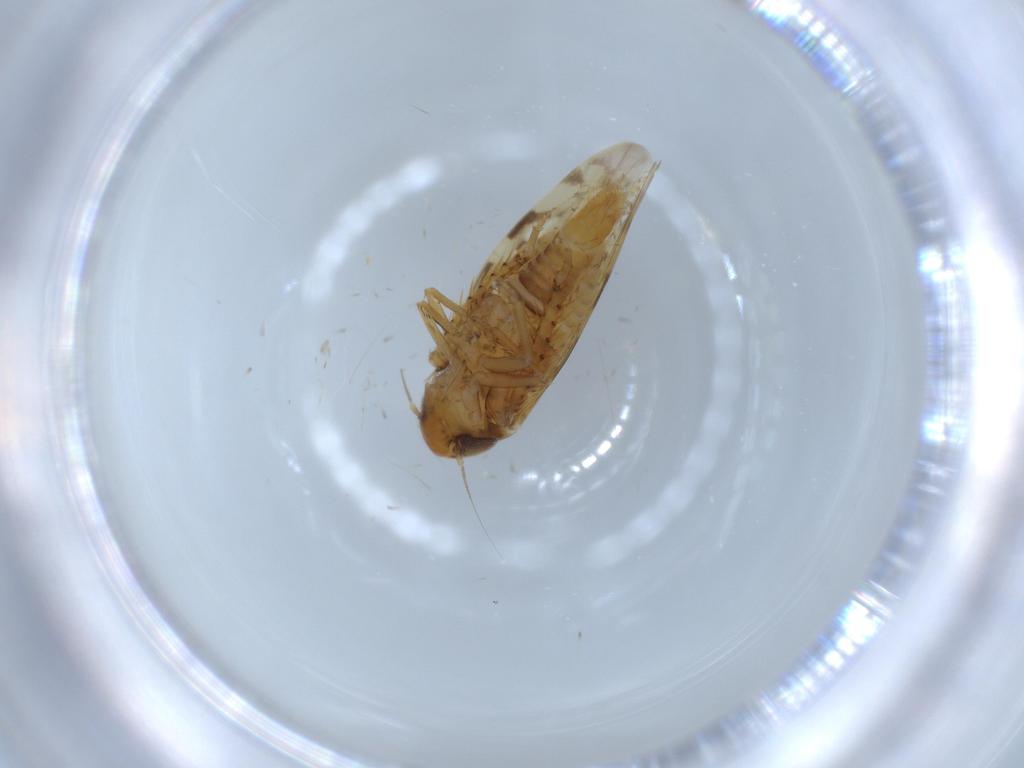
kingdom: Animalia
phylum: Arthropoda
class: Insecta
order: Hemiptera
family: Cicadellidae
